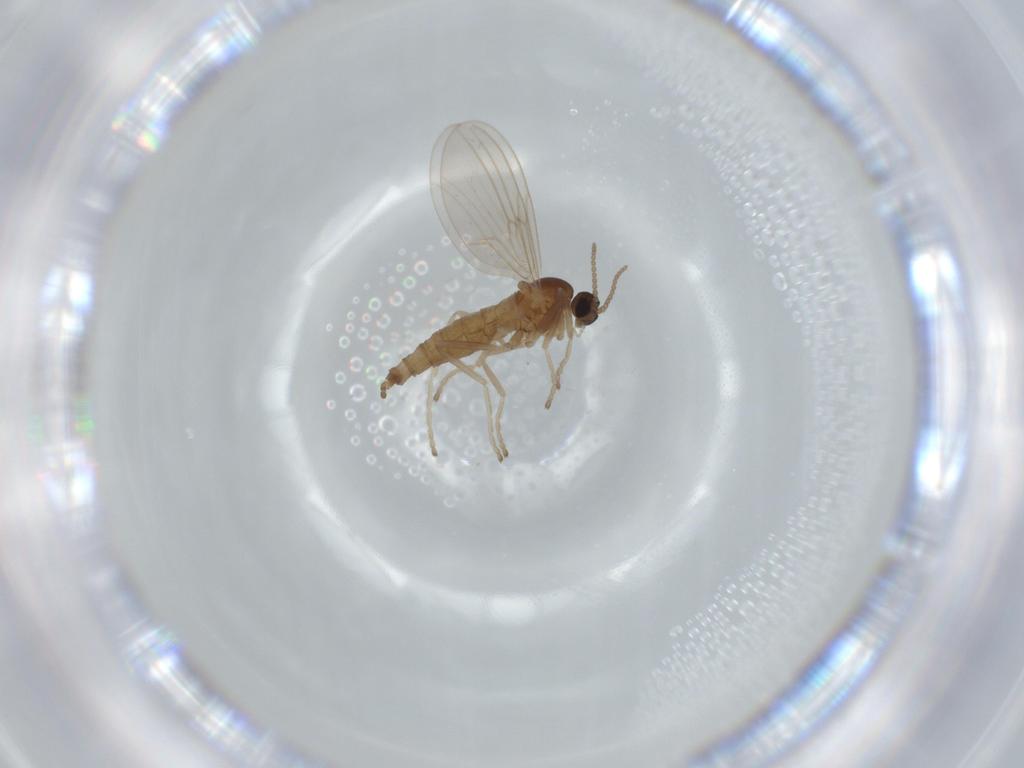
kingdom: Animalia
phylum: Arthropoda
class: Insecta
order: Diptera
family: Cecidomyiidae
